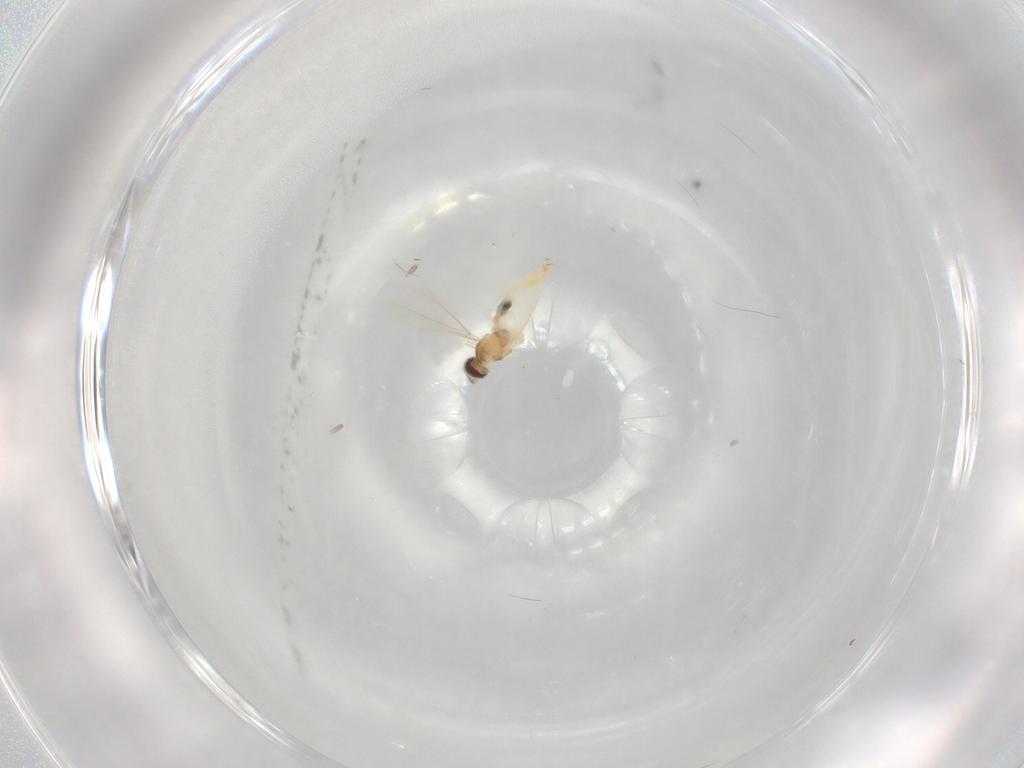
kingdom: Animalia
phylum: Arthropoda
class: Insecta
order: Diptera
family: Cecidomyiidae
